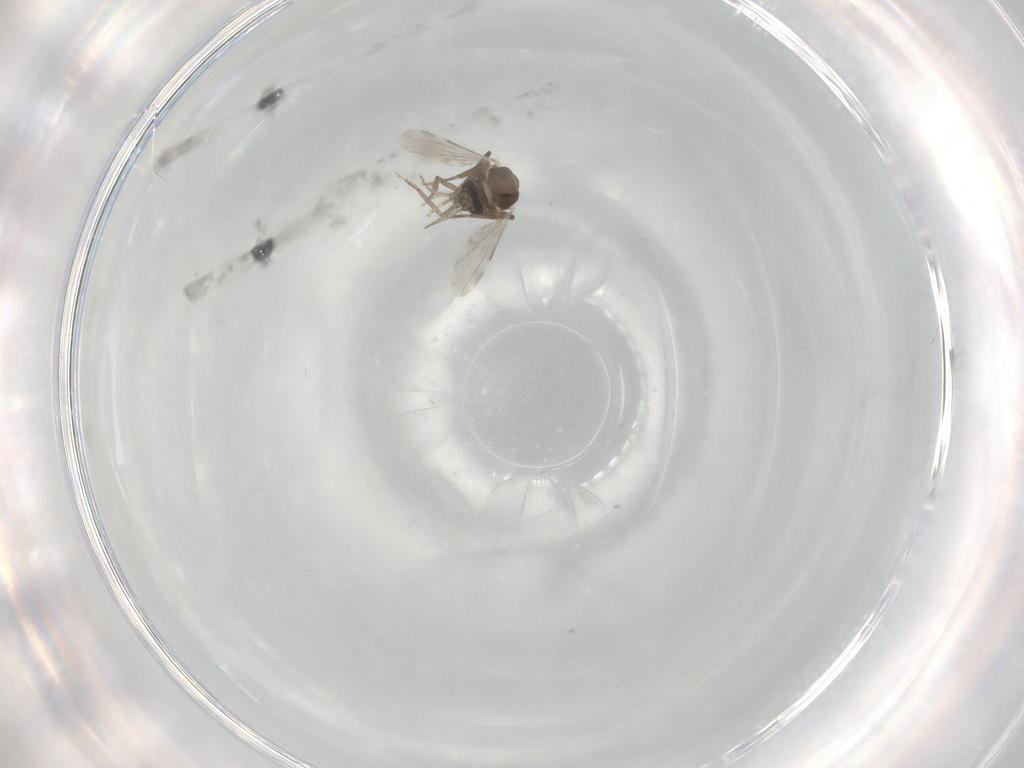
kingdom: Animalia
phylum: Arthropoda
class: Insecta
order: Diptera
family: Ceratopogonidae
